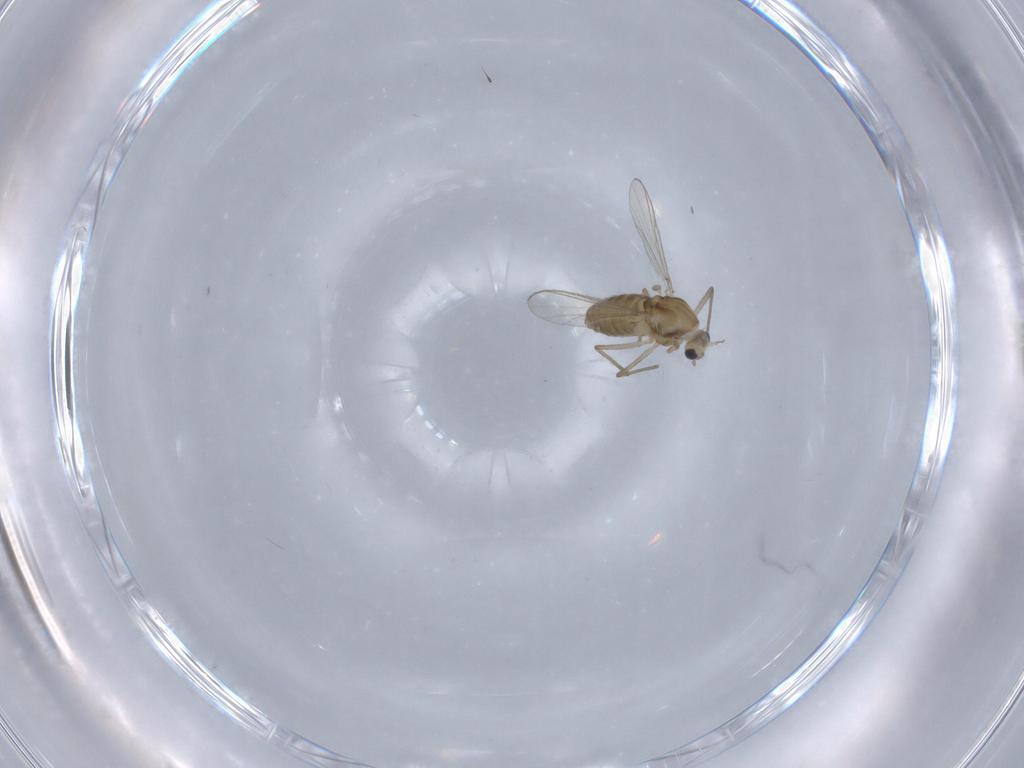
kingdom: Animalia
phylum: Arthropoda
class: Insecta
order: Diptera
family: Chironomidae
